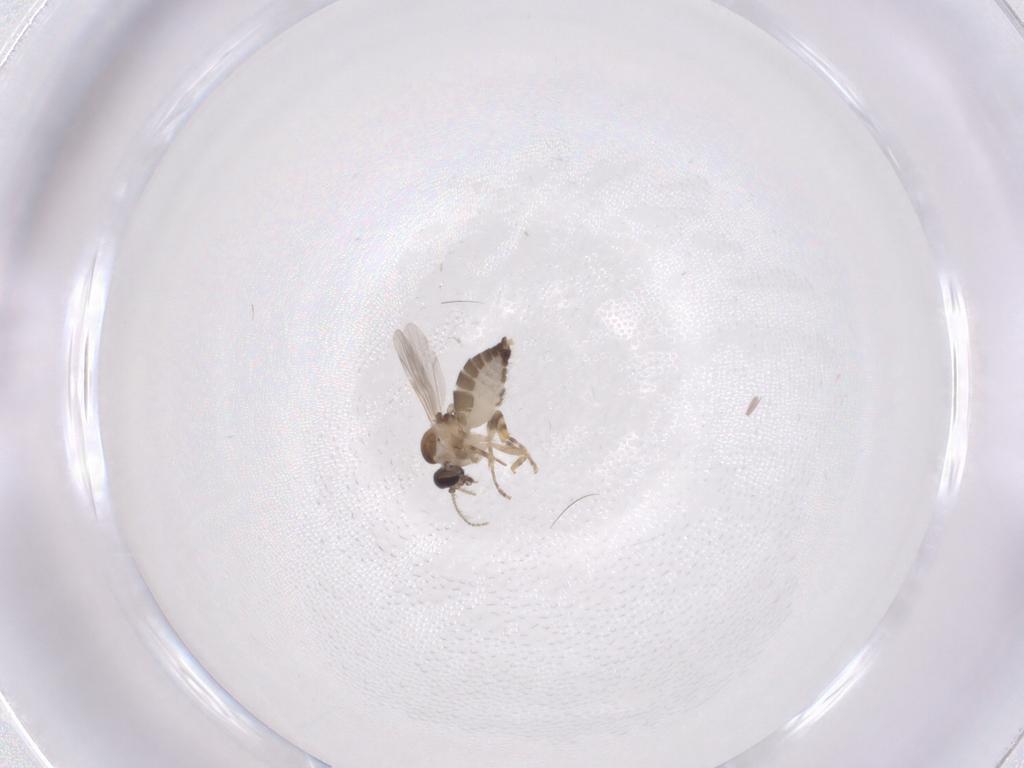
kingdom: Animalia
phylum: Arthropoda
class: Insecta
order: Diptera
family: Ceratopogonidae
